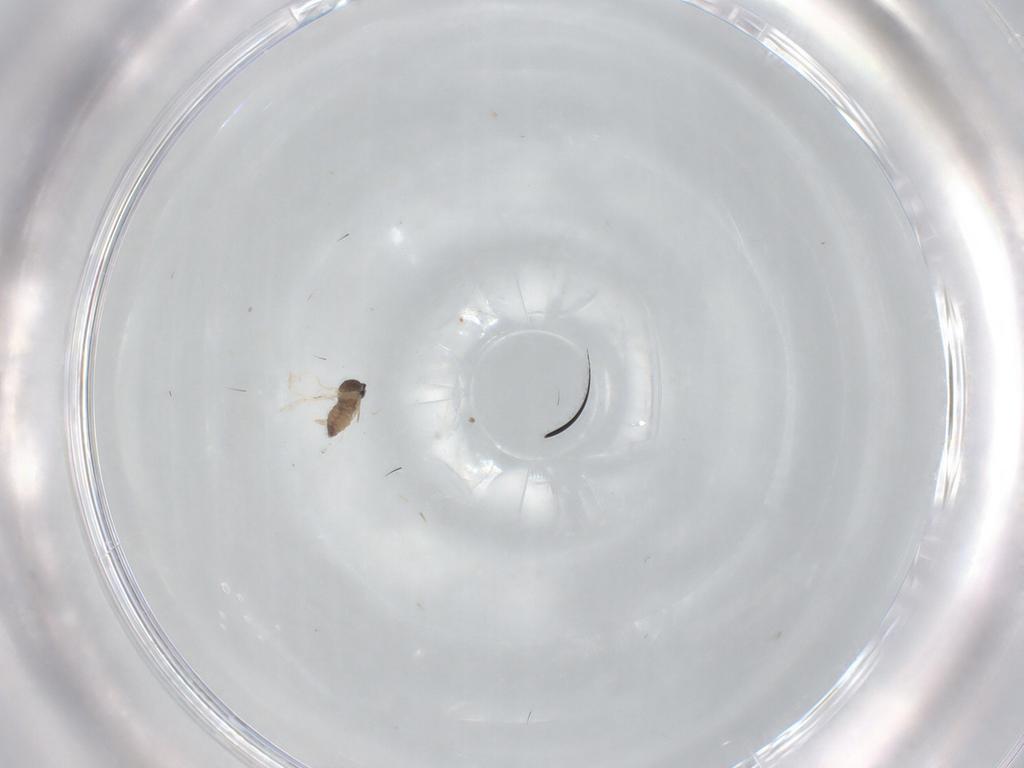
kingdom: Animalia
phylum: Arthropoda
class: Insecta
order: Diptera
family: Cecidomyiidae
